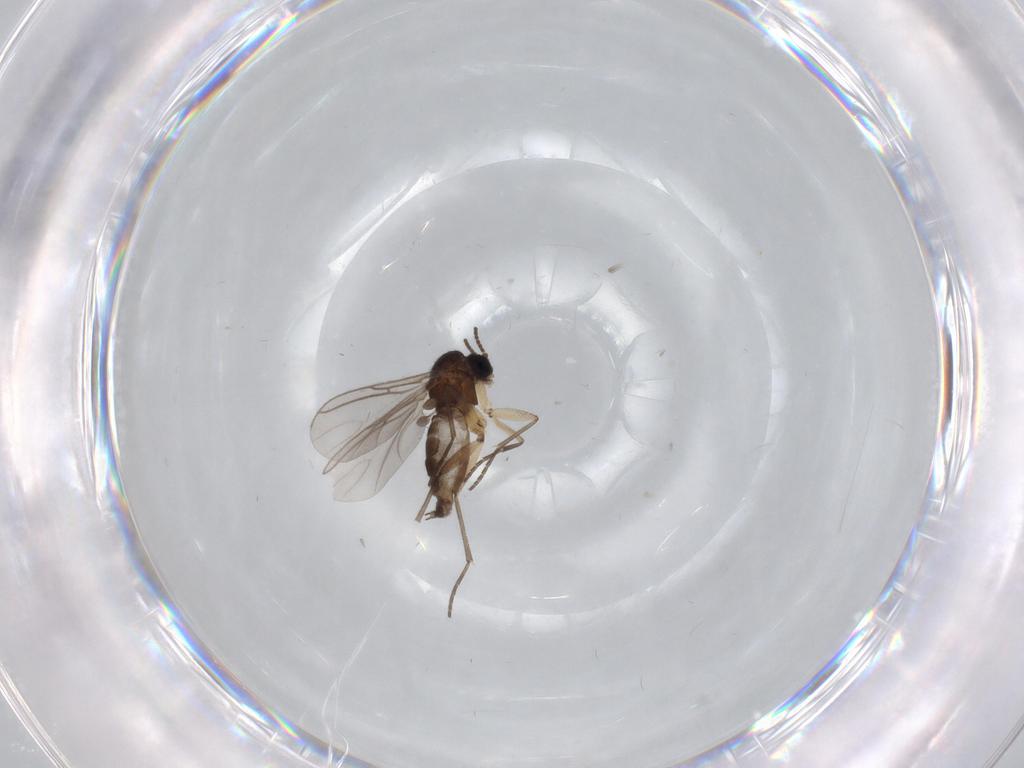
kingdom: Animalia
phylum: Arthropoda
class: Insecta
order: Diptera
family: Sciaridae
